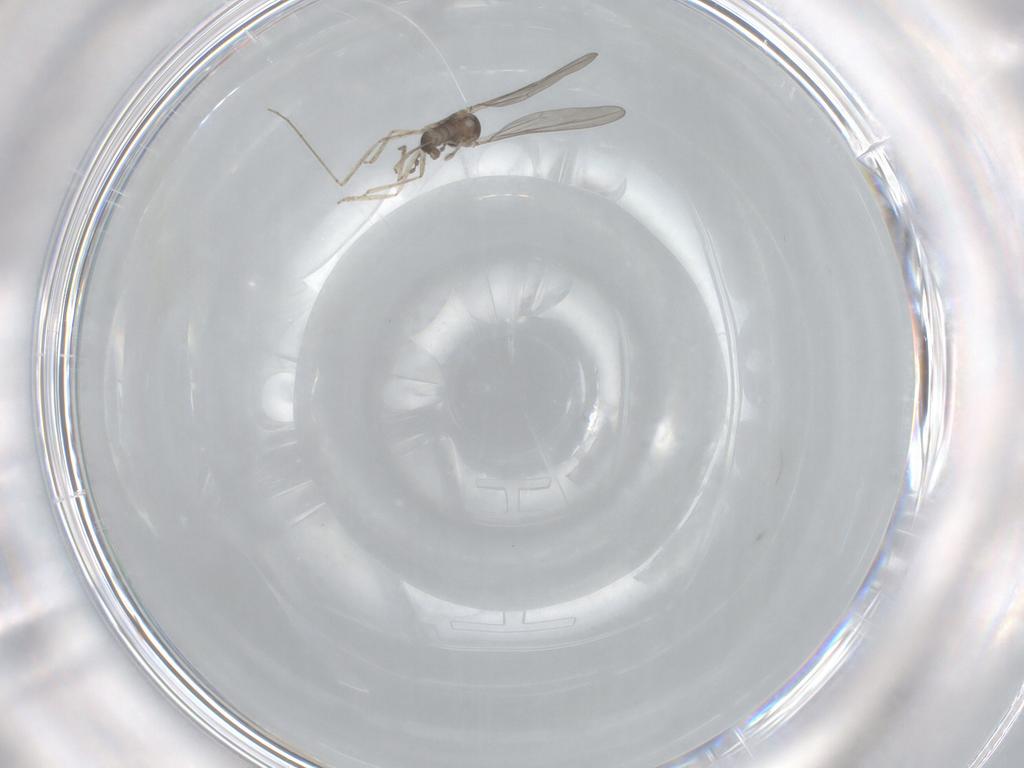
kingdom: Animalia
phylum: Arthropoda
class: Insecta
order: Diptera
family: Cecidomyiidae
